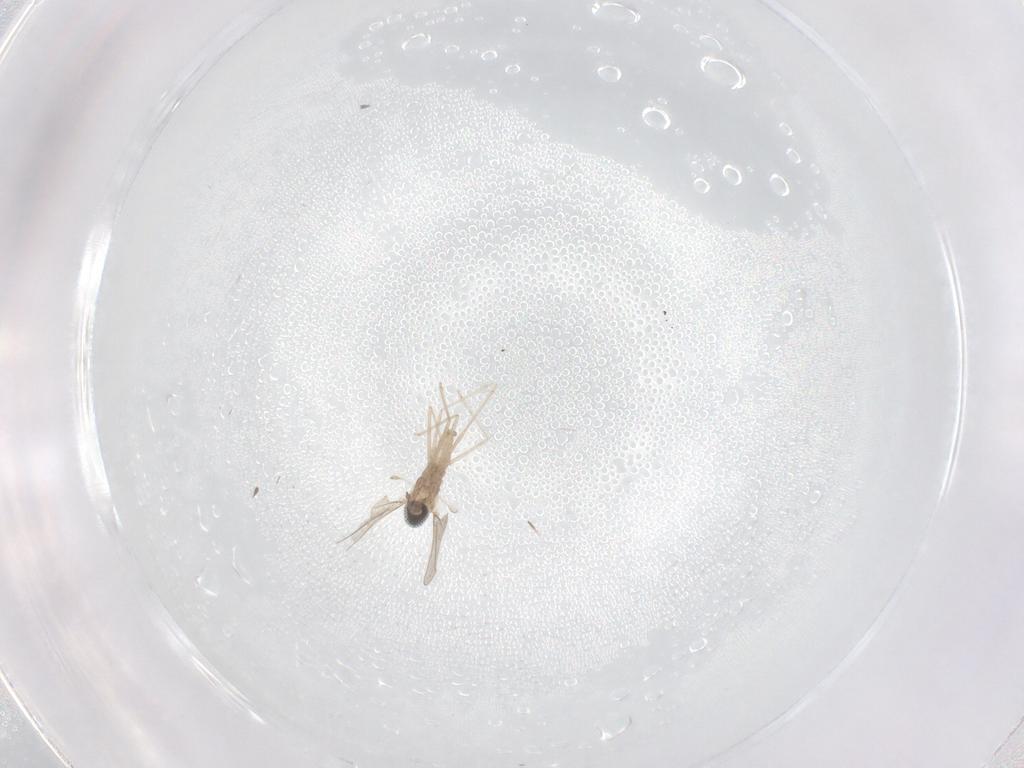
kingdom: Animalia
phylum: Arthropoda
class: Insecta
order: Diptera
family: Cecidomyiidae
